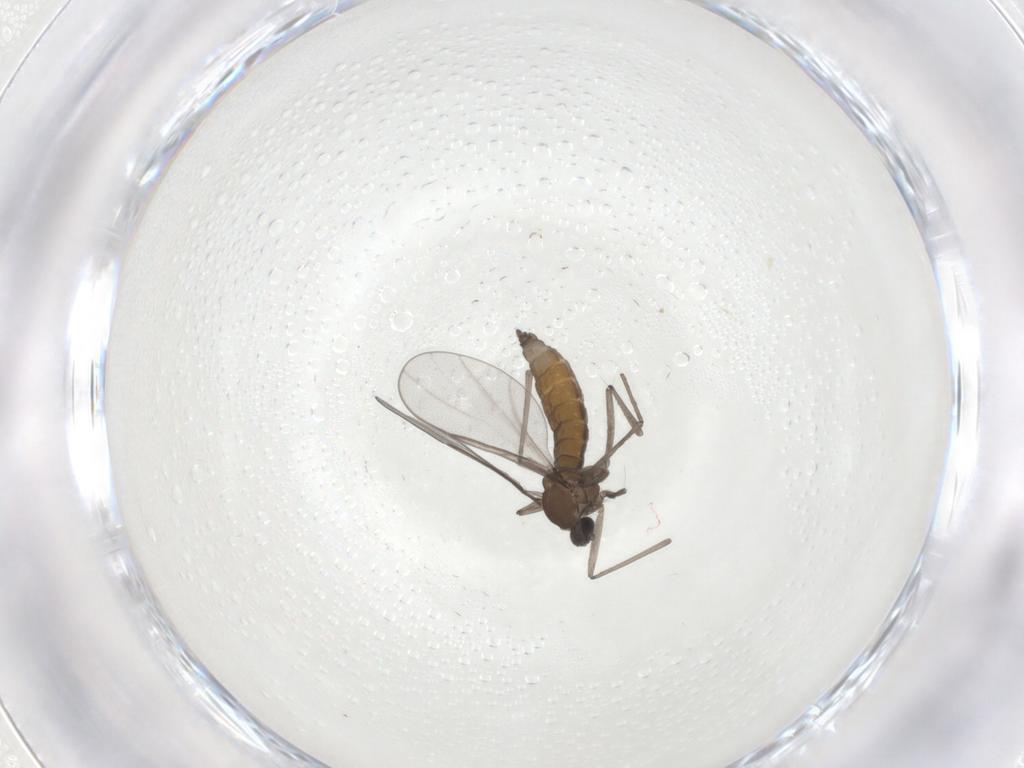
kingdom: Animalia
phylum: Arthropoda
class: Insecta
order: Diptera
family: Cecidomyiidae
